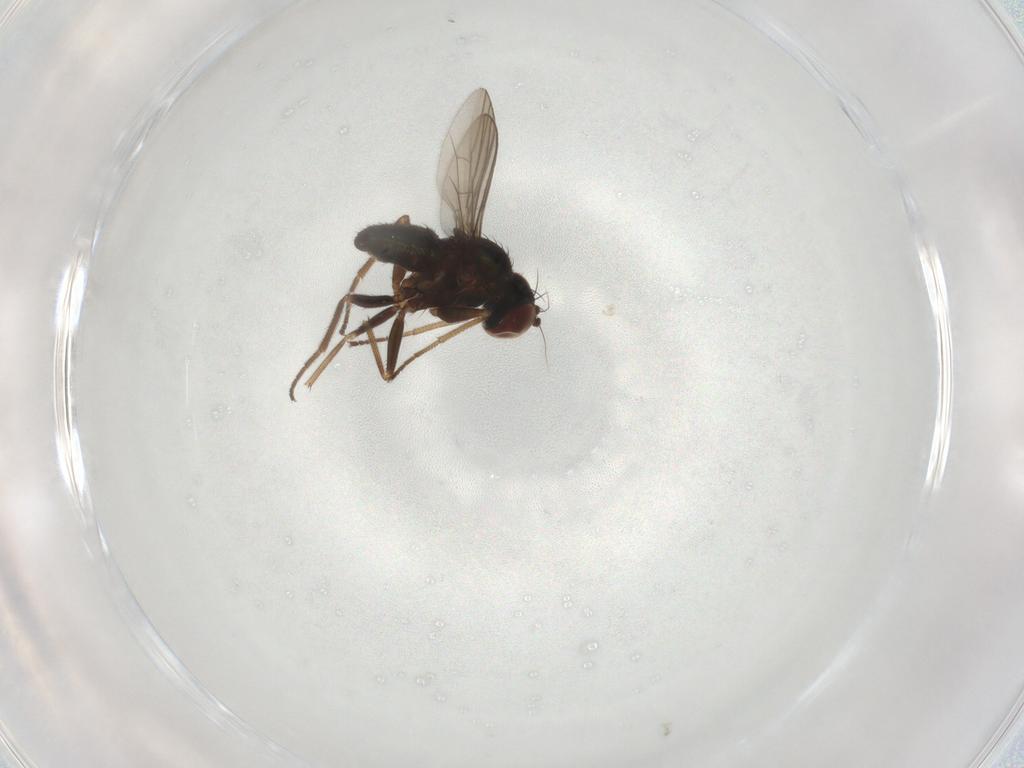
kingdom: Animalia
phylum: Arthropoda
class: Insecta
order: Diptera
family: Dolichopodidae
